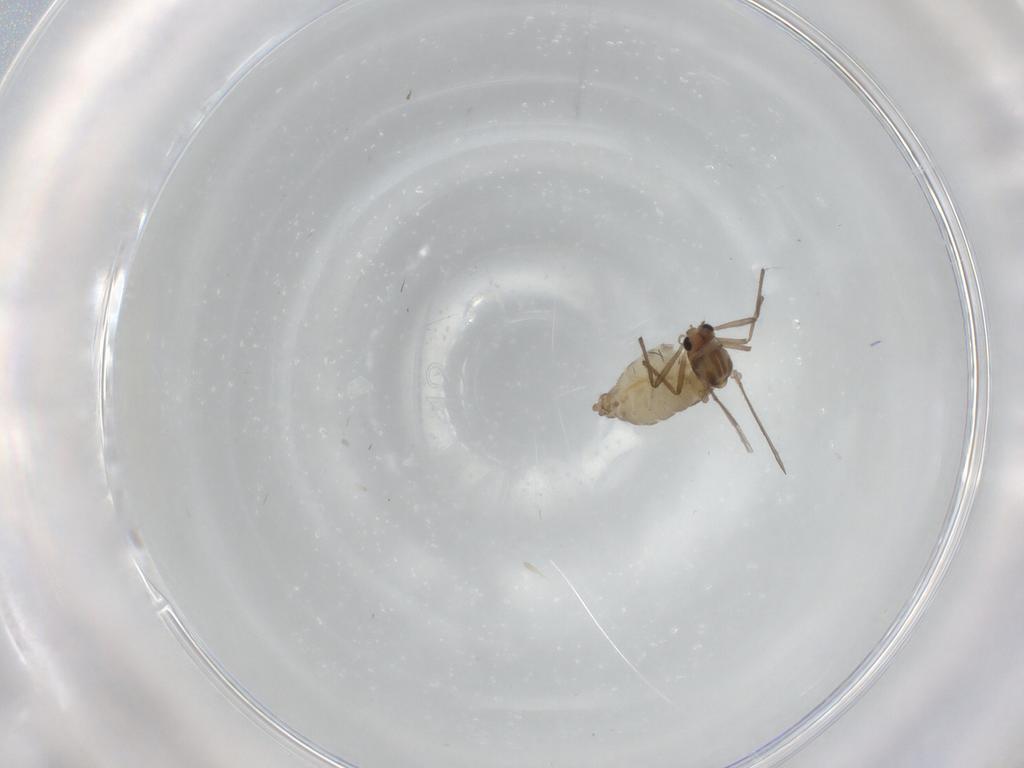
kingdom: Animalia
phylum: Arthropoda
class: Insecta
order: Diptera
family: Chironomidae
